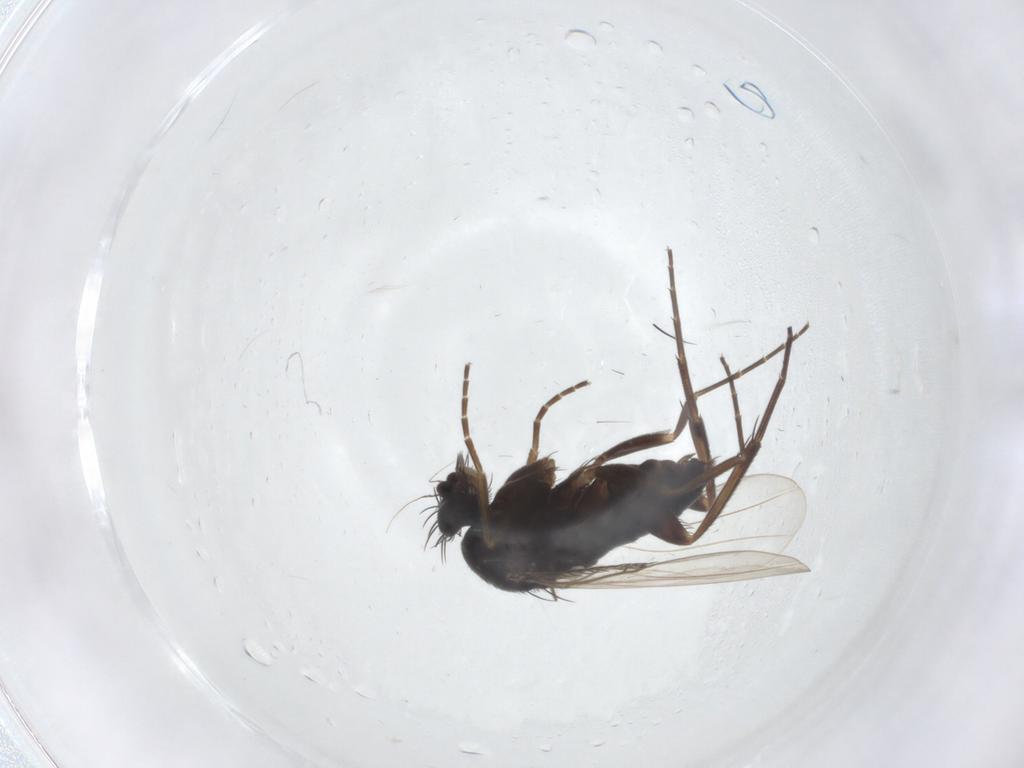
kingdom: Animalia
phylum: Arthropoda
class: Insecta
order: Diptera
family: Phoridae
